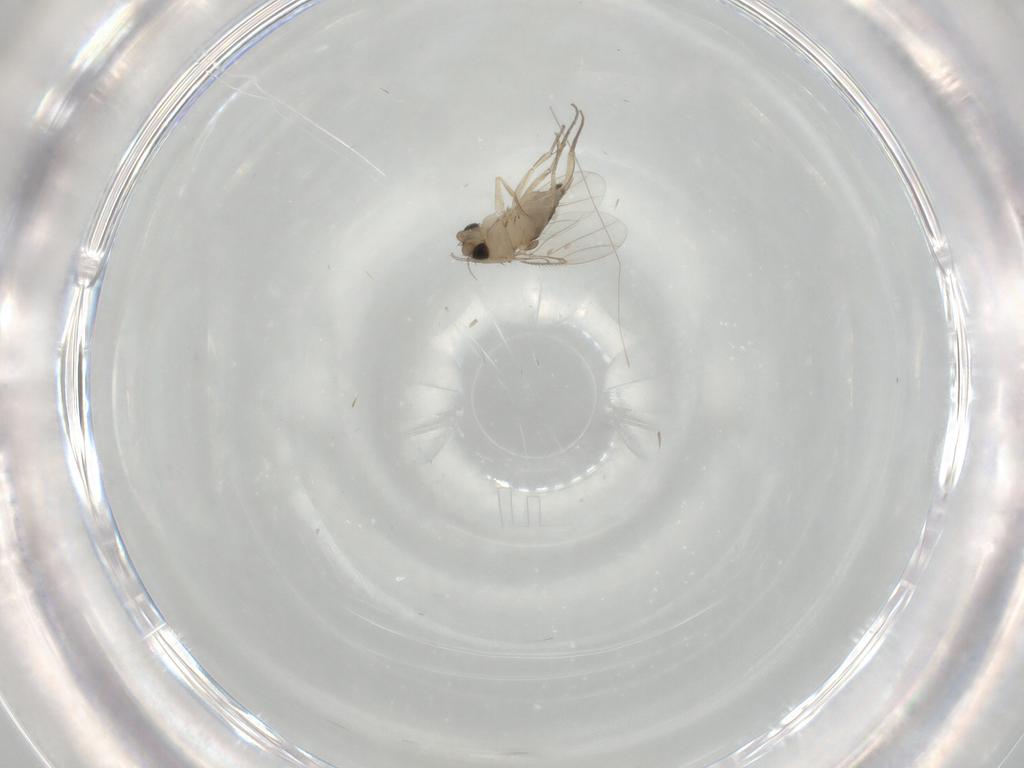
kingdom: Animalia
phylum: Arthropoda
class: Insecta
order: Diptera
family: Phoridae
